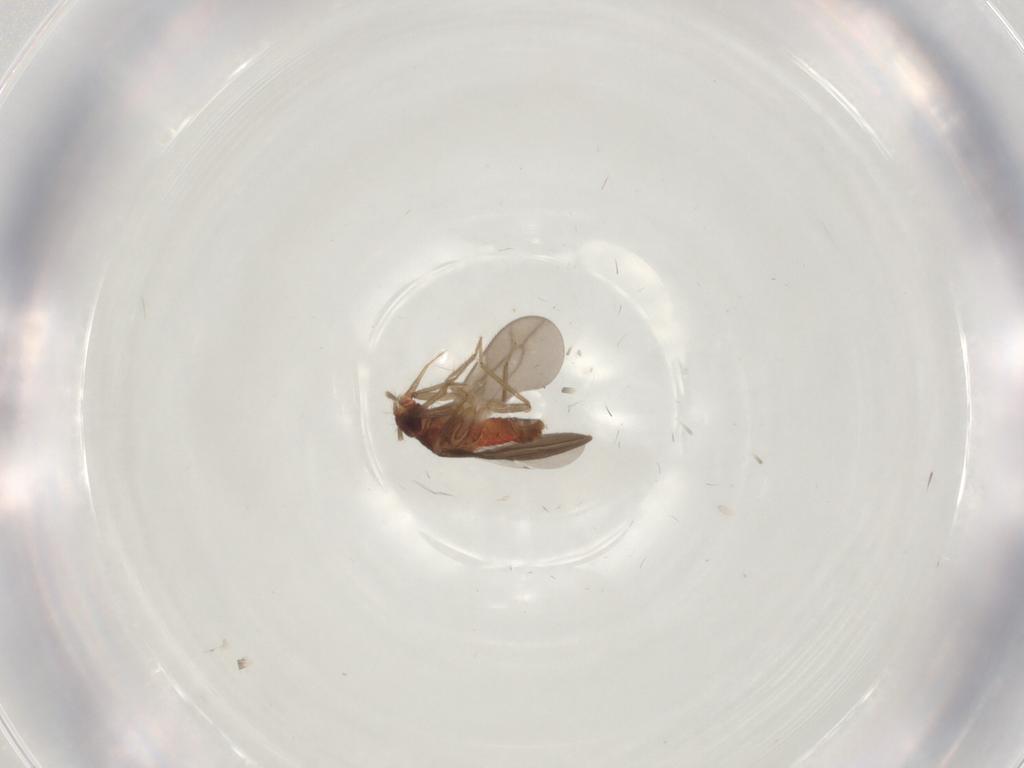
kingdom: Animalia
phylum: Arthropoda
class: Insecta
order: Hemiptera
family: Ceratocombidae
